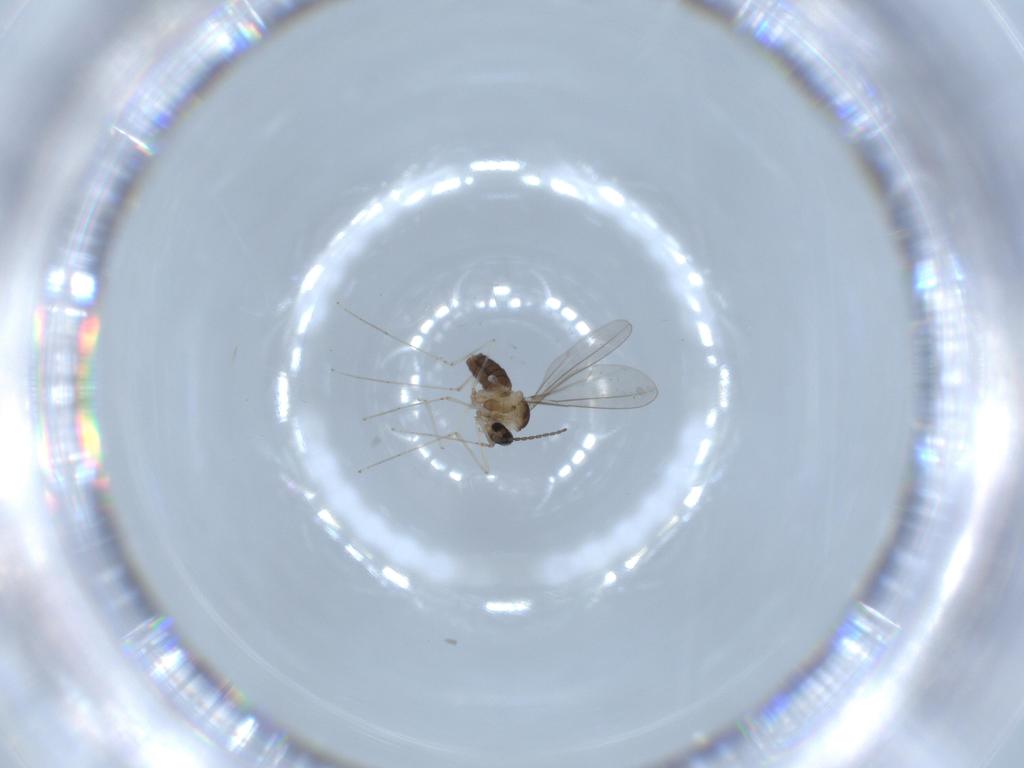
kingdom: Animalia
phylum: Arthropoda
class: Insecta
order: Diptera
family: Cecidomyiidae
